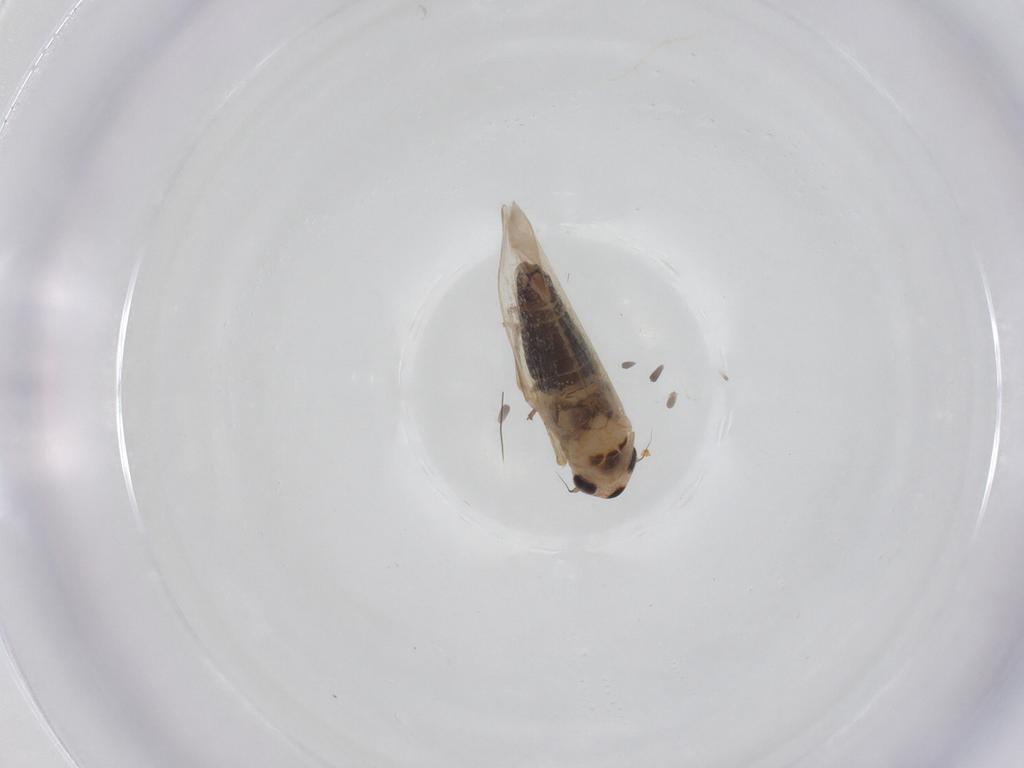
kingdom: Animalia
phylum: Arthropoda
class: Insecta
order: Hemiptera
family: Cicadellidae
